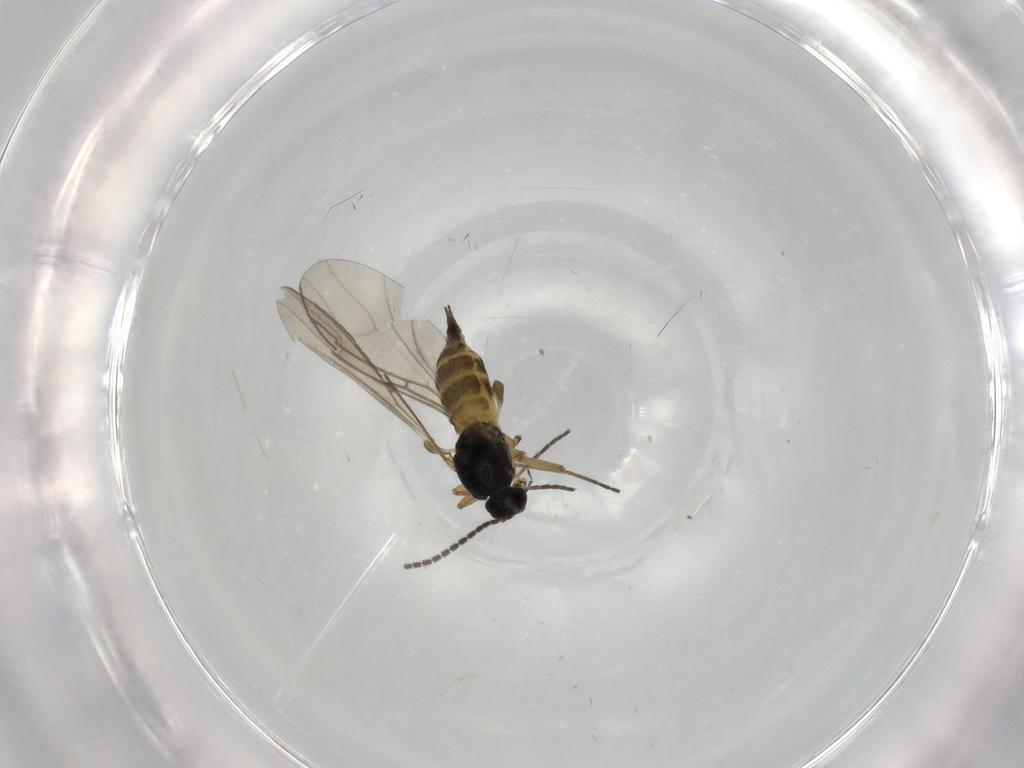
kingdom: Animalia
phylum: Arthropoda
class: Insecta
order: Diptera
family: Sciaridae
